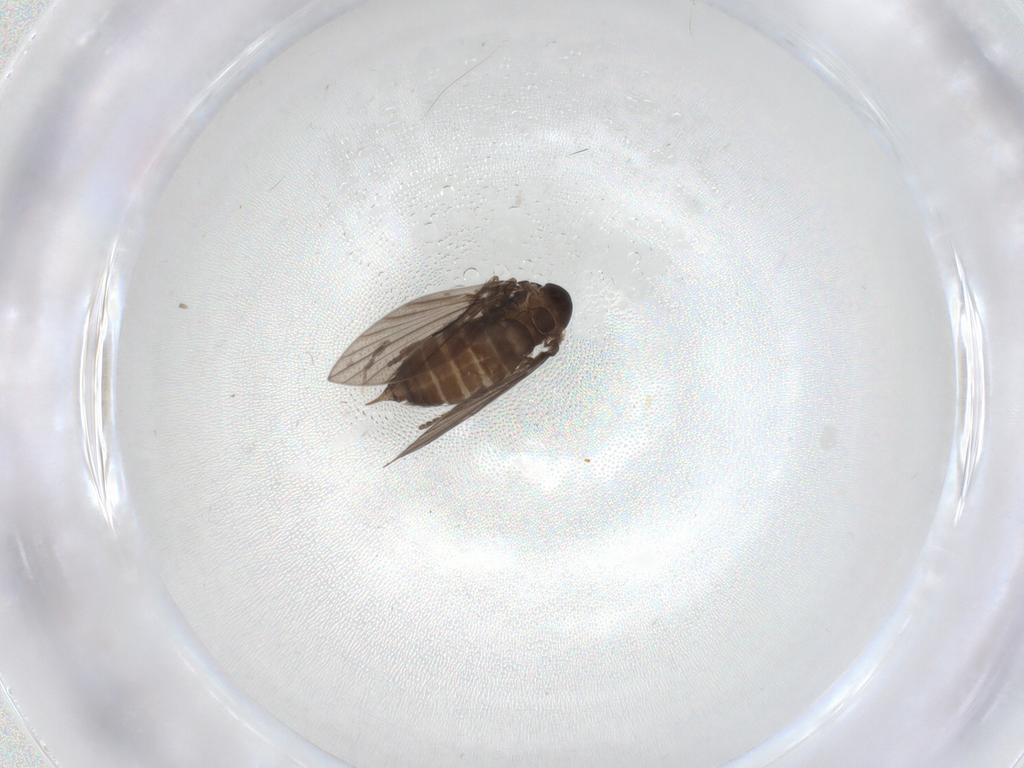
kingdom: Animalia
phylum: Arthropoda
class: Insecta
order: Diptera
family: Psychodidae
